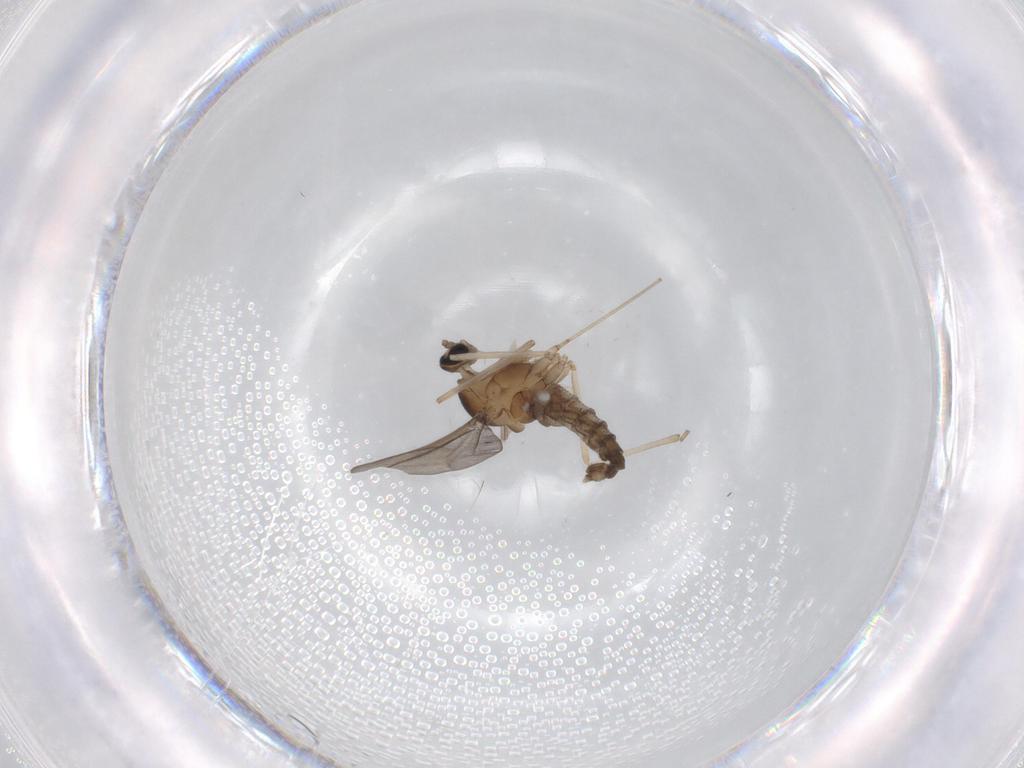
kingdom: Animalia
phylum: Arthropoda
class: Insecta
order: Diptera
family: Cecidomyiidae
